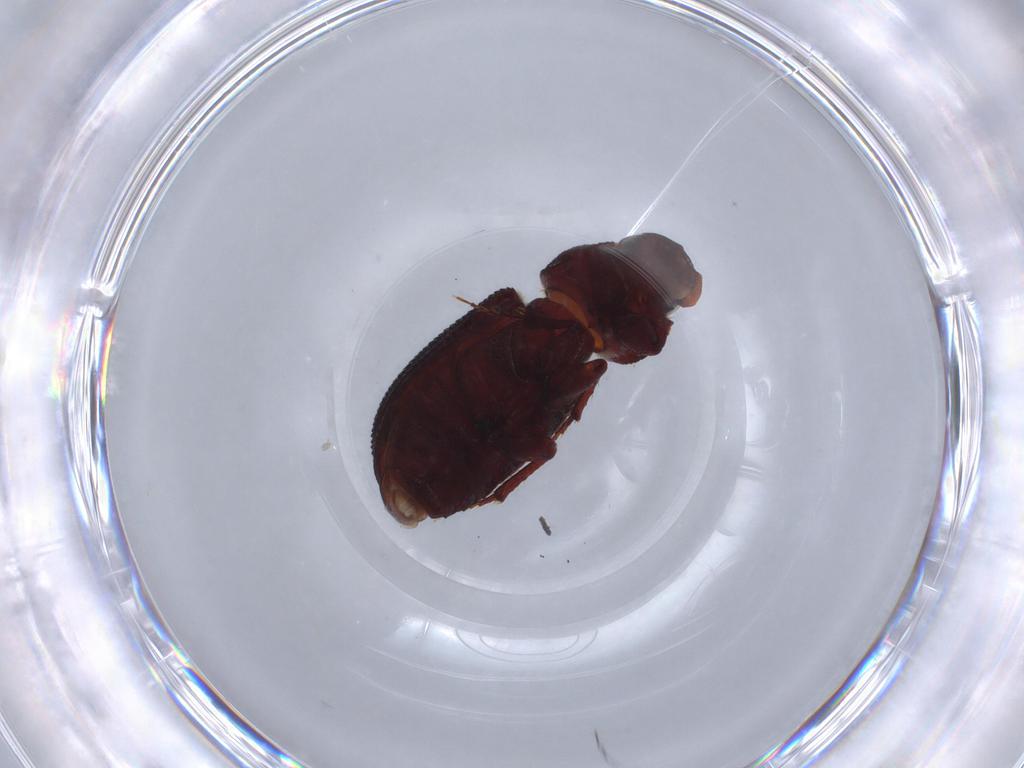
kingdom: Animalia
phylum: Arthropoda
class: Insecta
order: Coleoptera
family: Scarabaeidae
